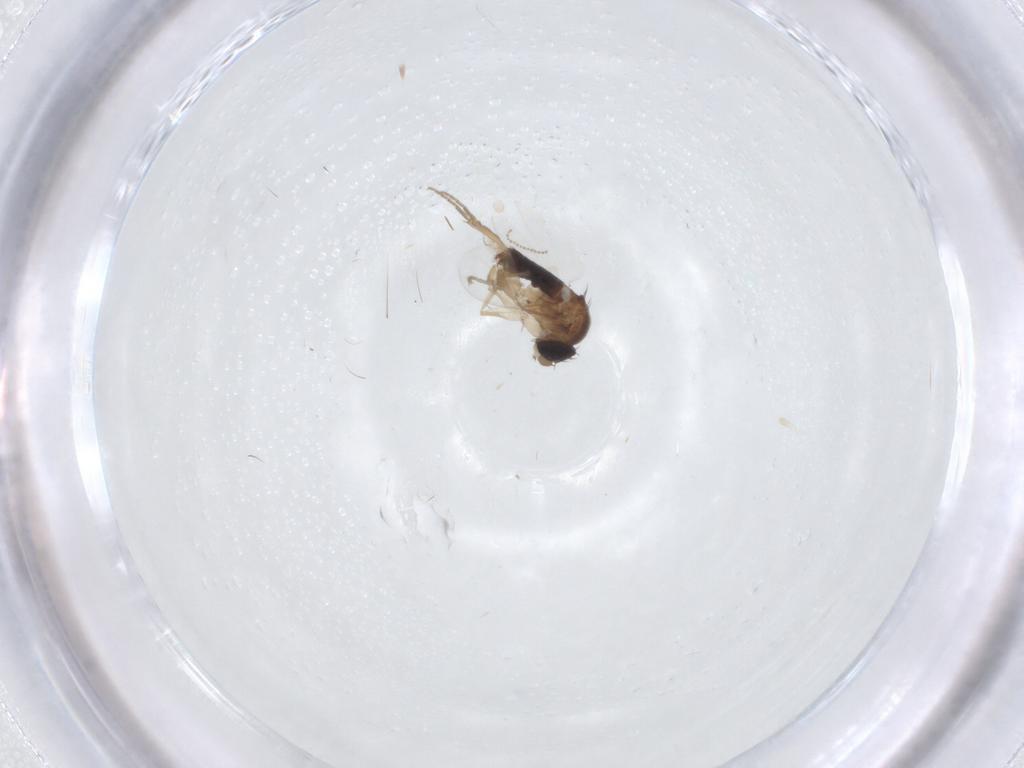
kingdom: Animalia
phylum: Arthropoda
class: Insecta
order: Diptera
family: Cecidomyiidae
